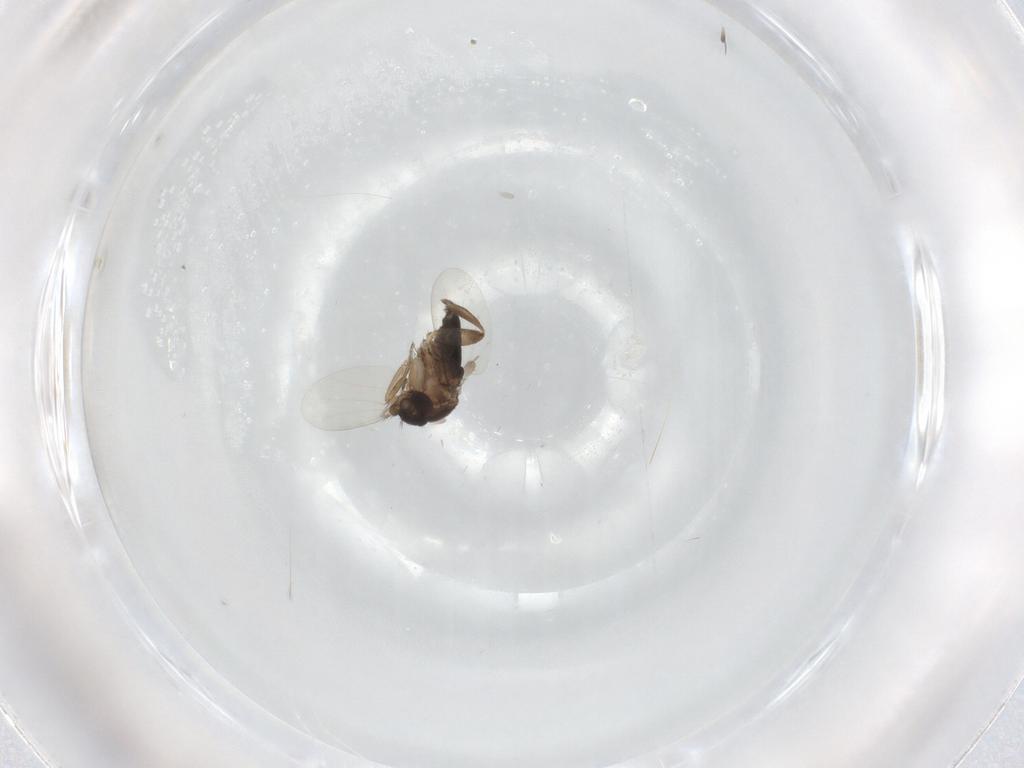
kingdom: Animalia
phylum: Arthropoda
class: Insecta
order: Diptera
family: Phoridae
